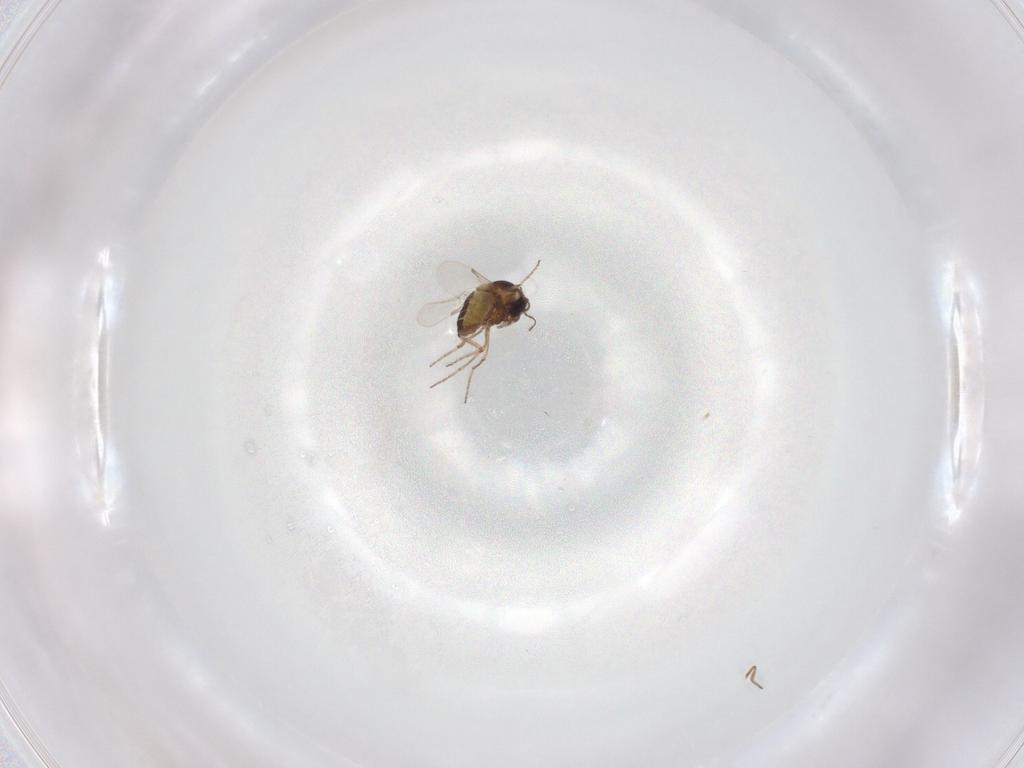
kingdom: Animalia
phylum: Arthropoda
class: Insecta
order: Diptera
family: Ceratopogonidae
